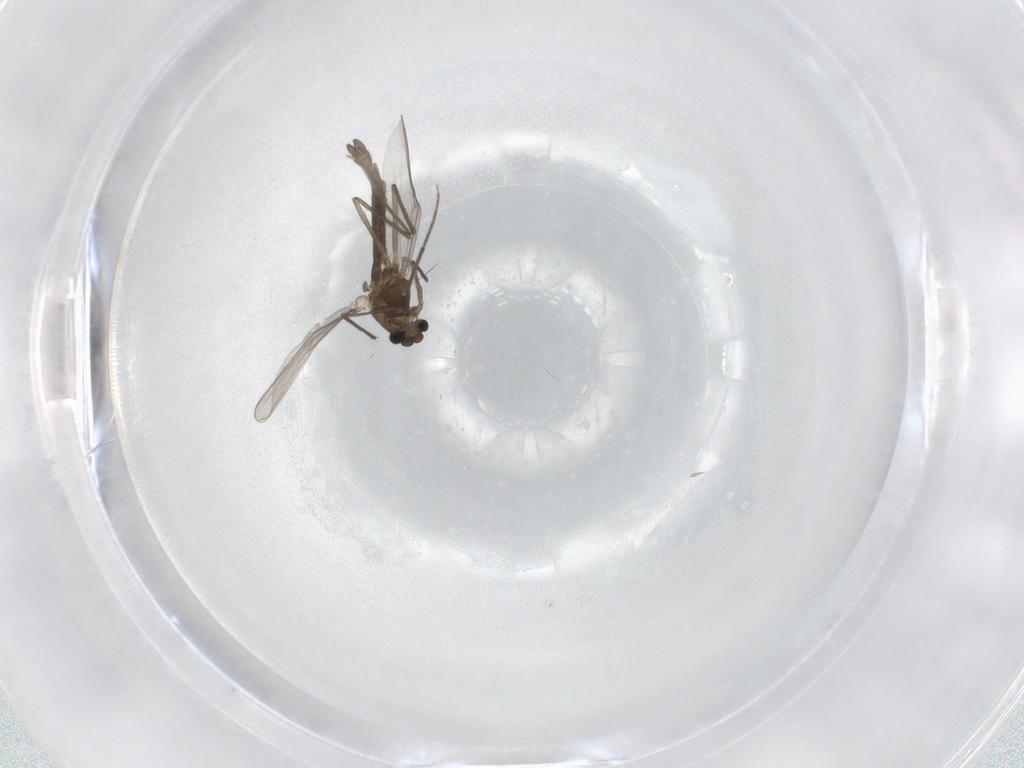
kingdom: Animalia
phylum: Arthropoda
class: Insecta
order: Diptera
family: Chironomidae
